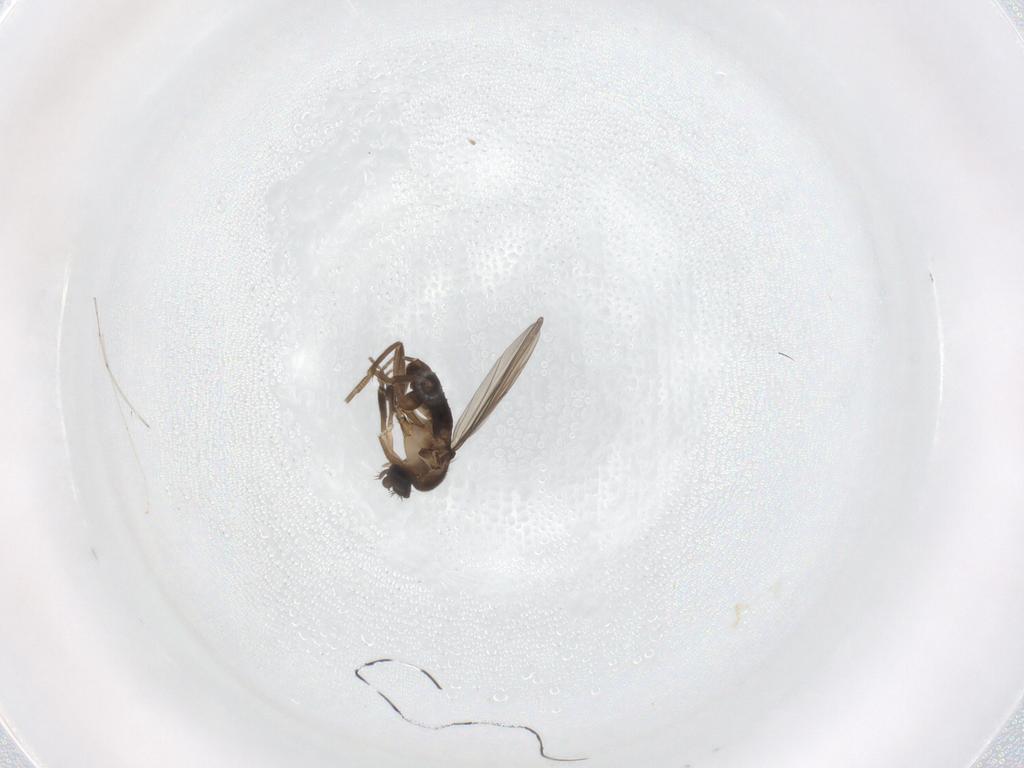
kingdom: Animalia
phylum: Arthropoda
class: Insecta
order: Diptera
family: Phoridae
